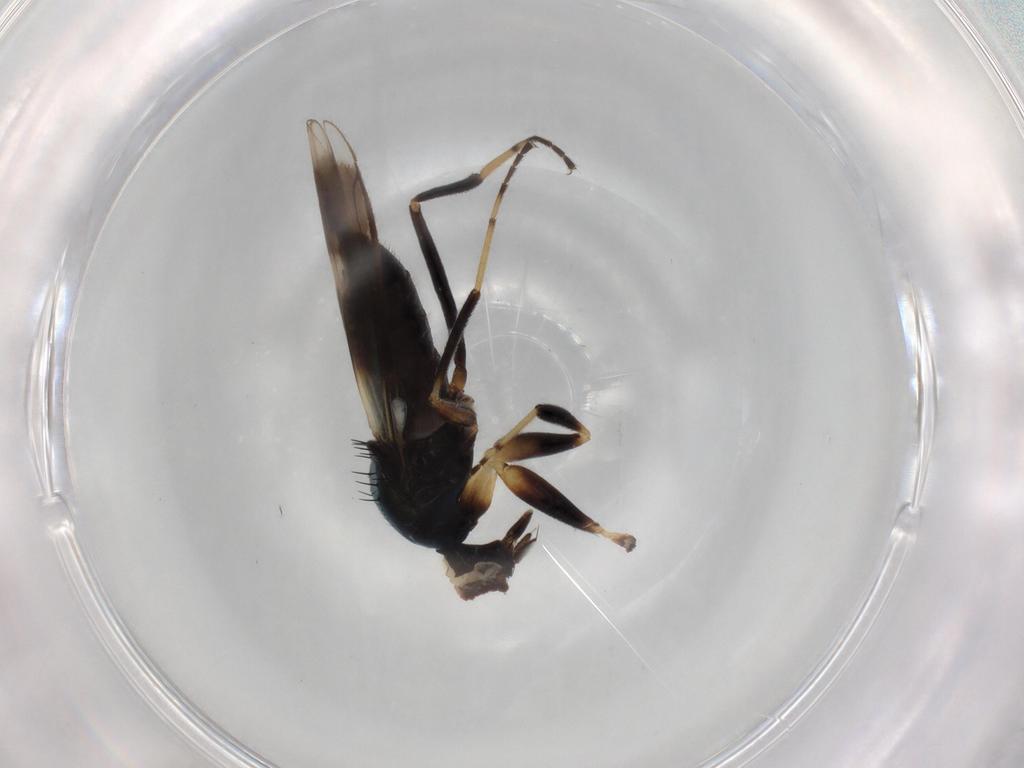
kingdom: Animalia
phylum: Arthropoda
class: Insecta
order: Diptera
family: Hybotidae
